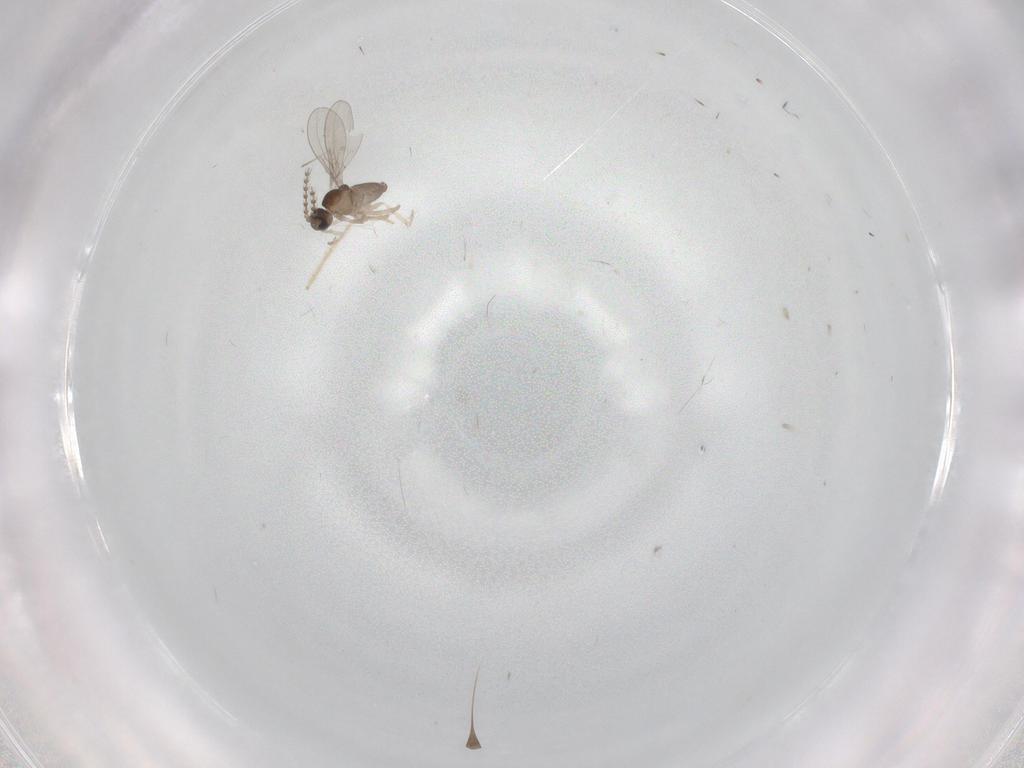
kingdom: Animalia
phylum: Arthropoda
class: Insecta
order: Diptera
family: Cecidomyiidae
